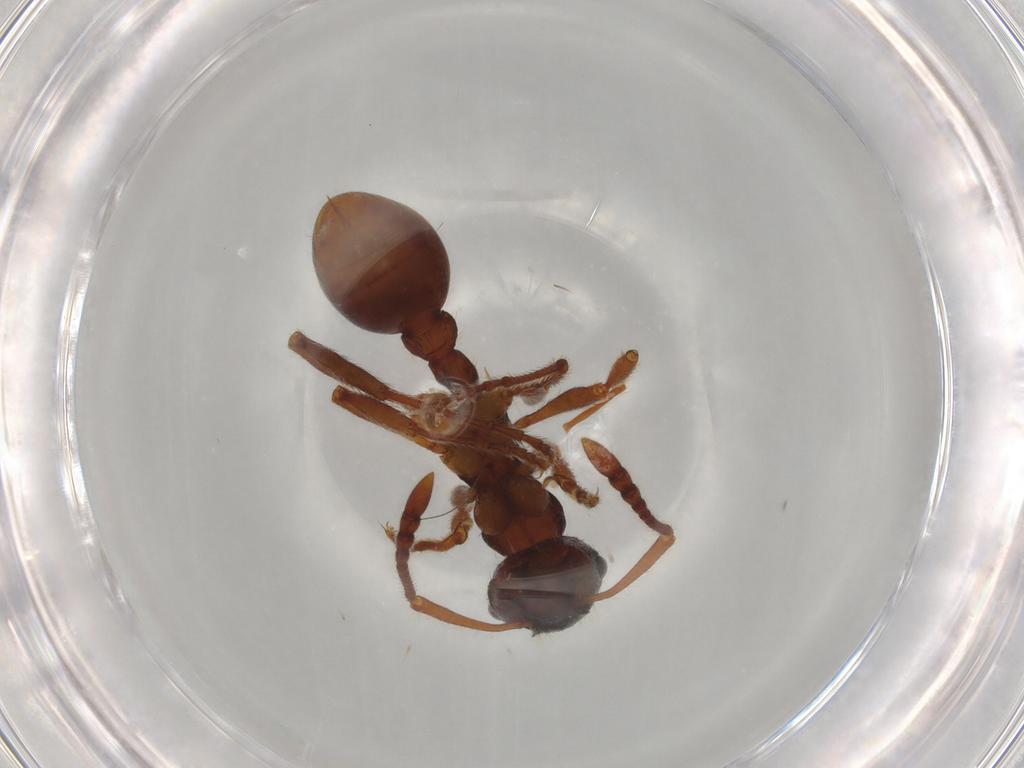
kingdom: Animalia
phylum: Arthropoda
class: Insecta
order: Hymenoptera
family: Formicidae
